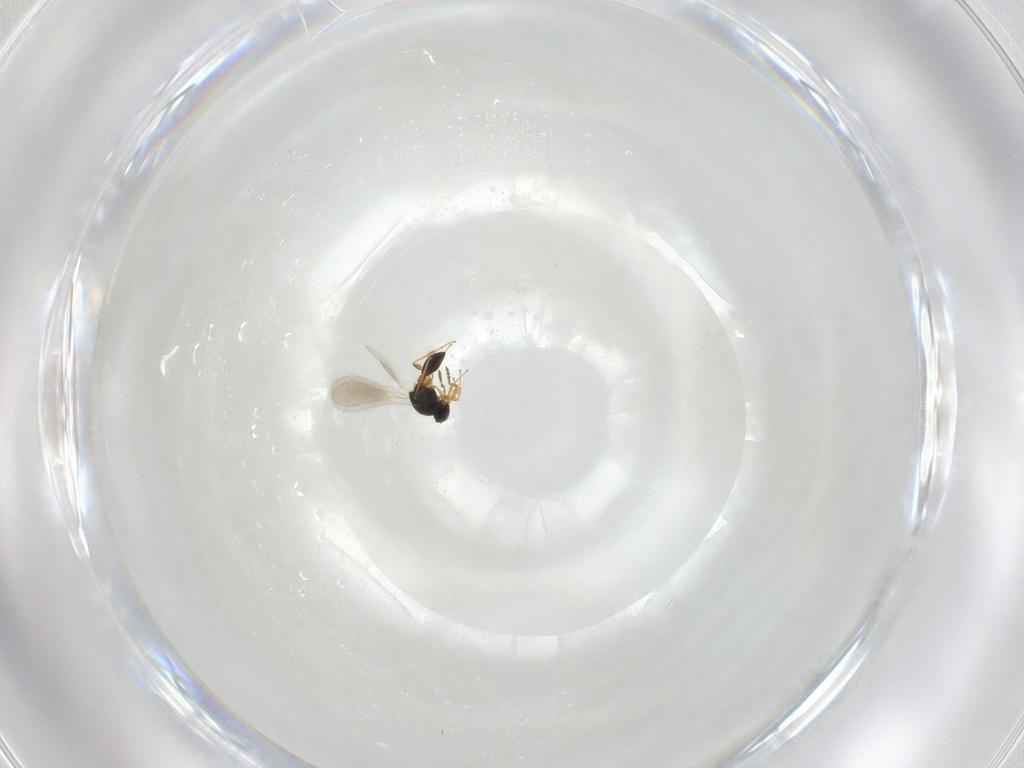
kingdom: Animalia
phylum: Arthropoda
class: Insecta
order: Hymenoptera
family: Platygastridae
